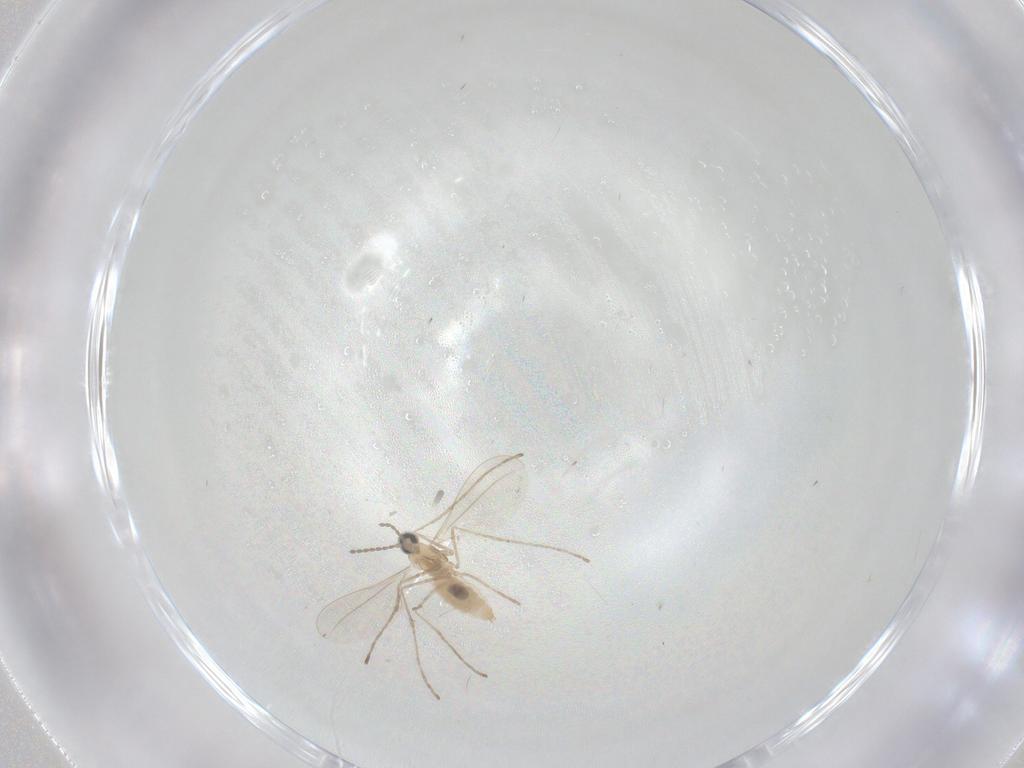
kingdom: Animalia
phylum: Arthropoda
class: Insecta
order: Diptera
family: Cecidomyiidae
